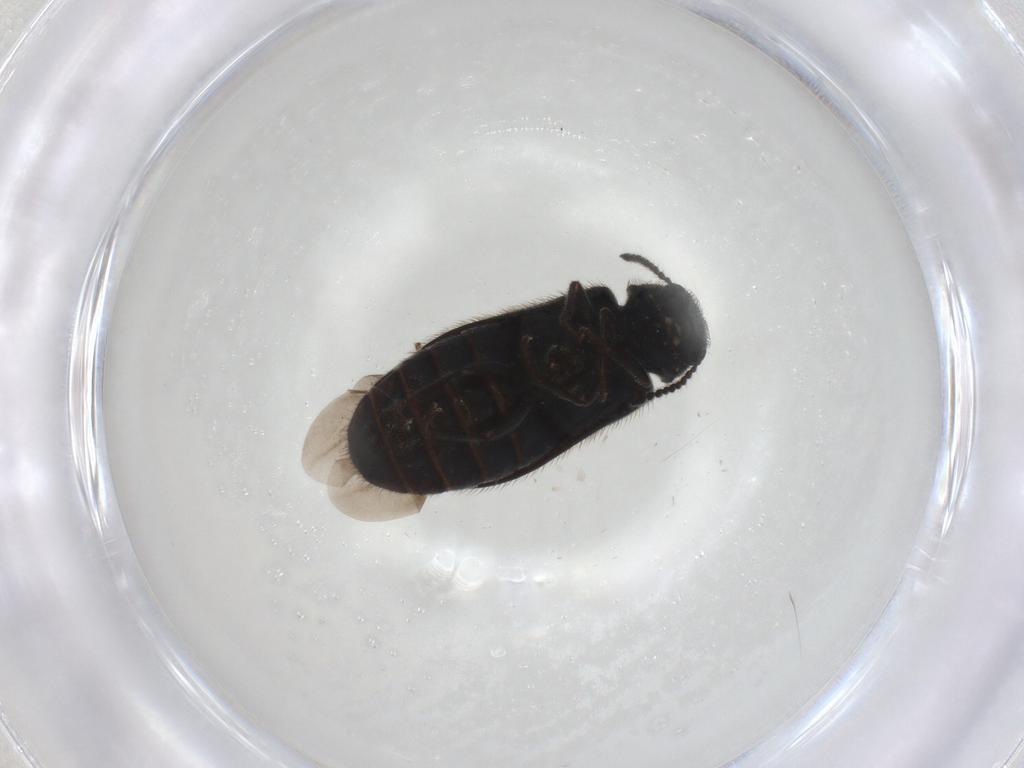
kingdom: Animalia
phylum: Arthropoda
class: Insecta
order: Coleoptera
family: Melyridae
